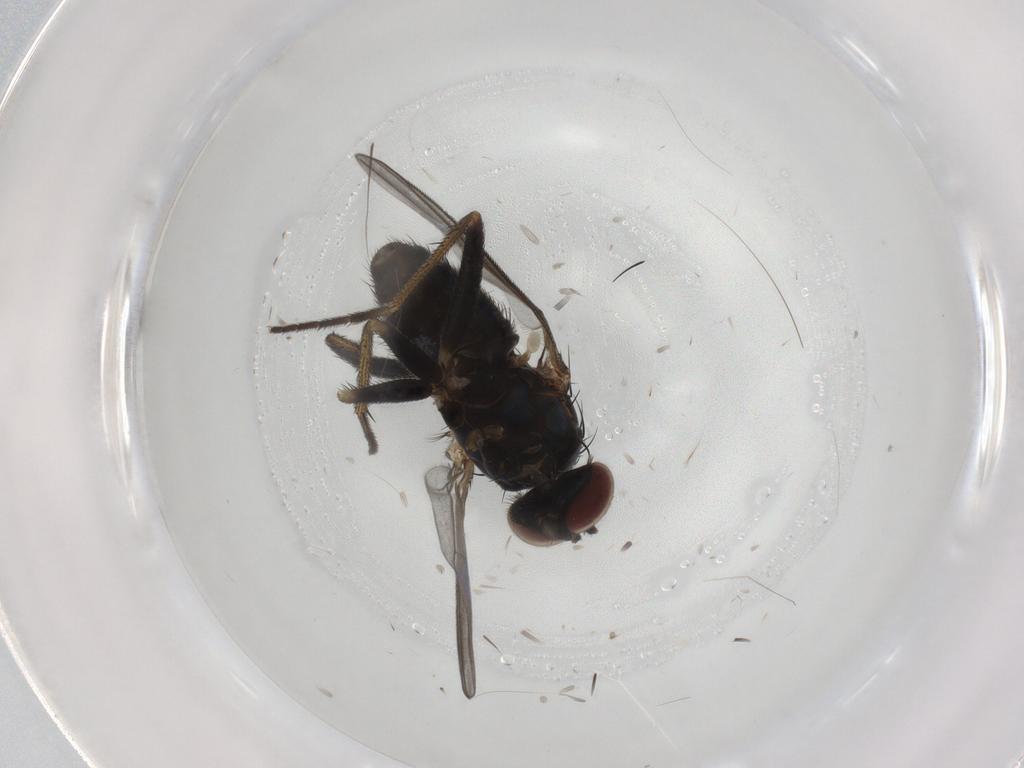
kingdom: Animalia
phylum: Arthropoda
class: Insecta
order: Diptera
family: Dolichopodidae
